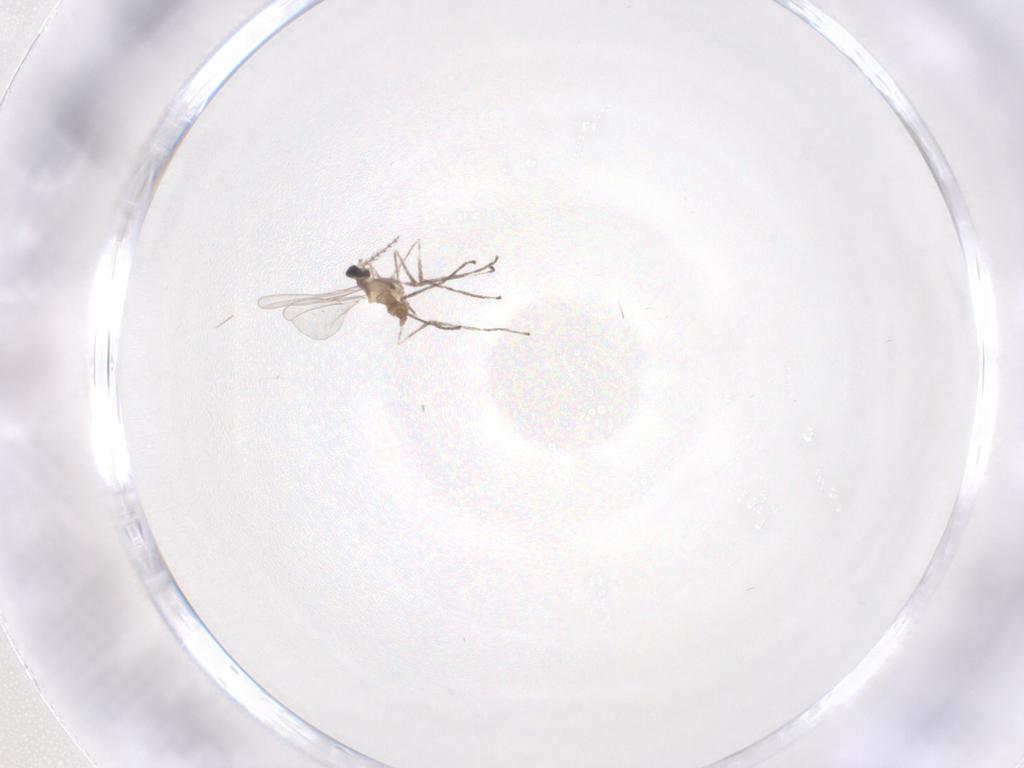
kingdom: Animalia
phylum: Arthropoda
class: Insecta
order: Diptera
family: Cecidomyiidae
